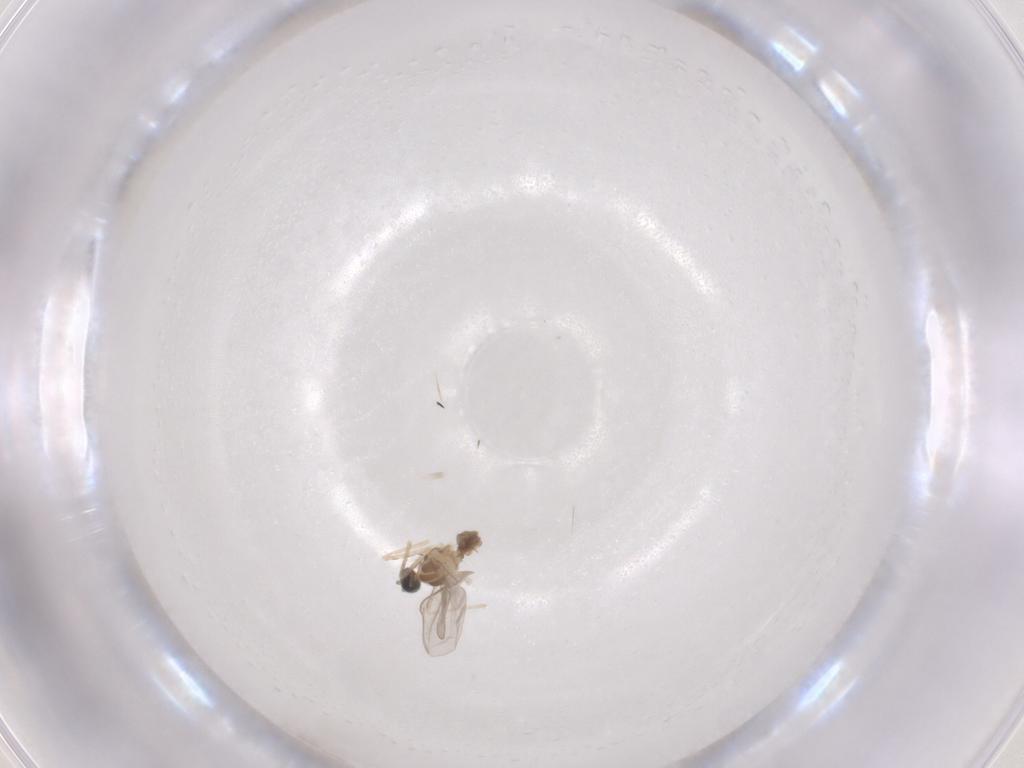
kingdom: Animalia
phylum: Arthropoda
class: Insecta
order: Diptera
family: Cecidomyiidae
